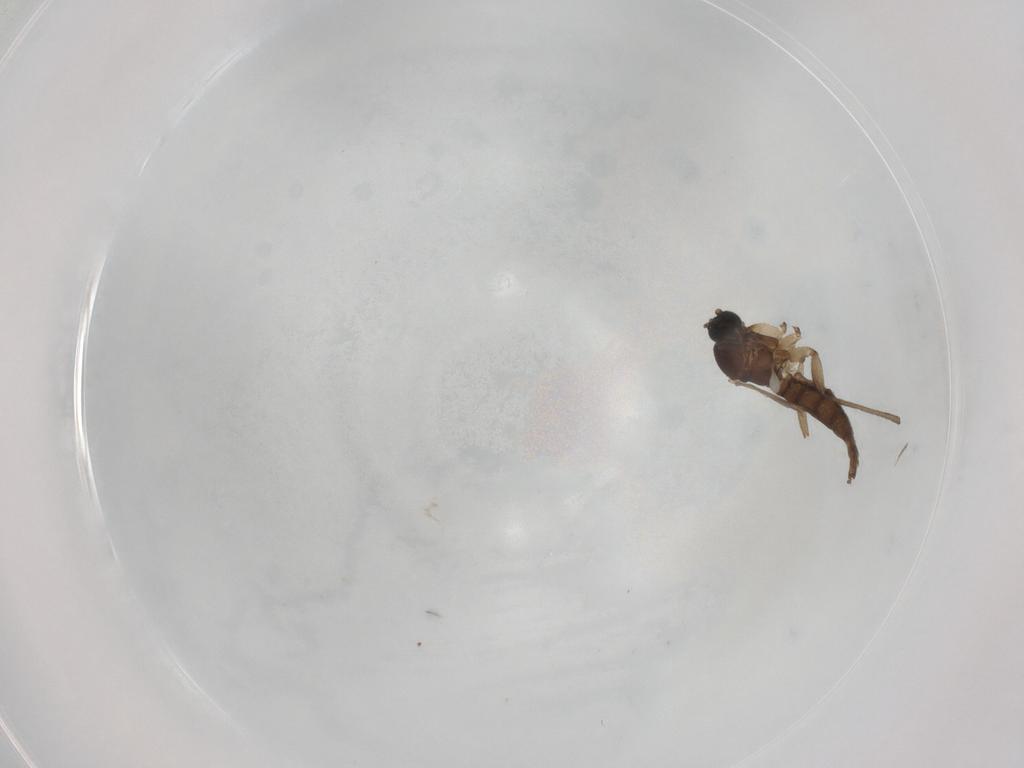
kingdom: Animalia
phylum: Arthropoda
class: Insecta
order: Diptera
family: Sciaridae
